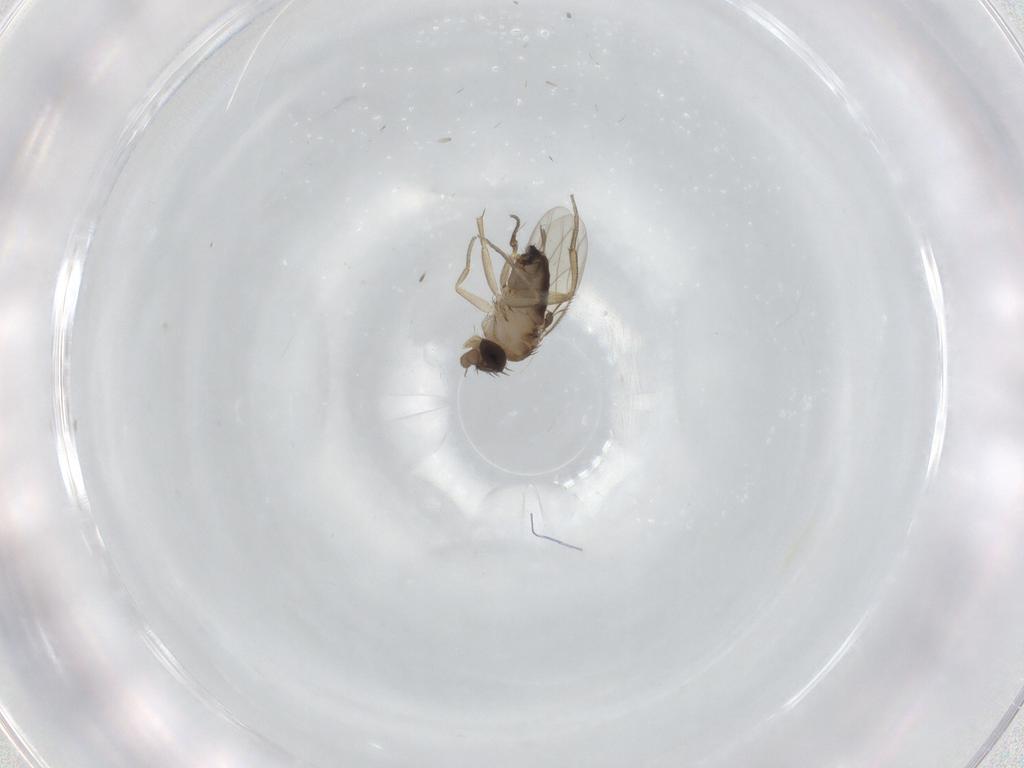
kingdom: Animalia
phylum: Arthropoda
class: Insecta
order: Diptera
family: Phoridae
